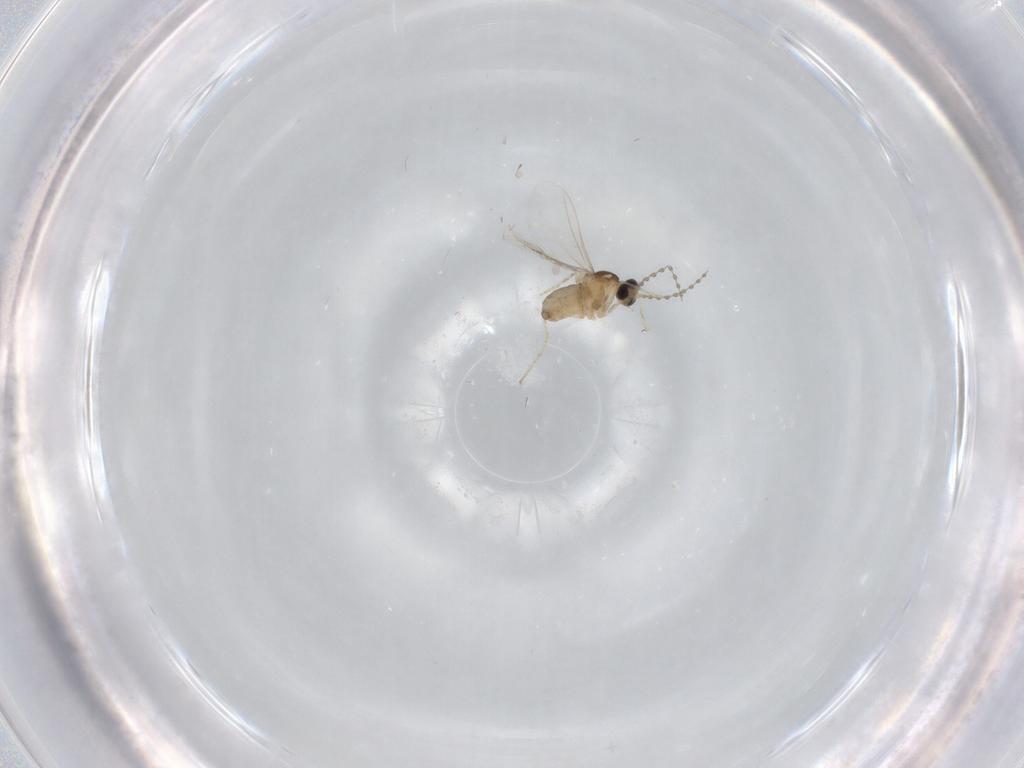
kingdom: Animalia
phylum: Arthropoda
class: Insecta
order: Diptera
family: Cecidomyiidae
